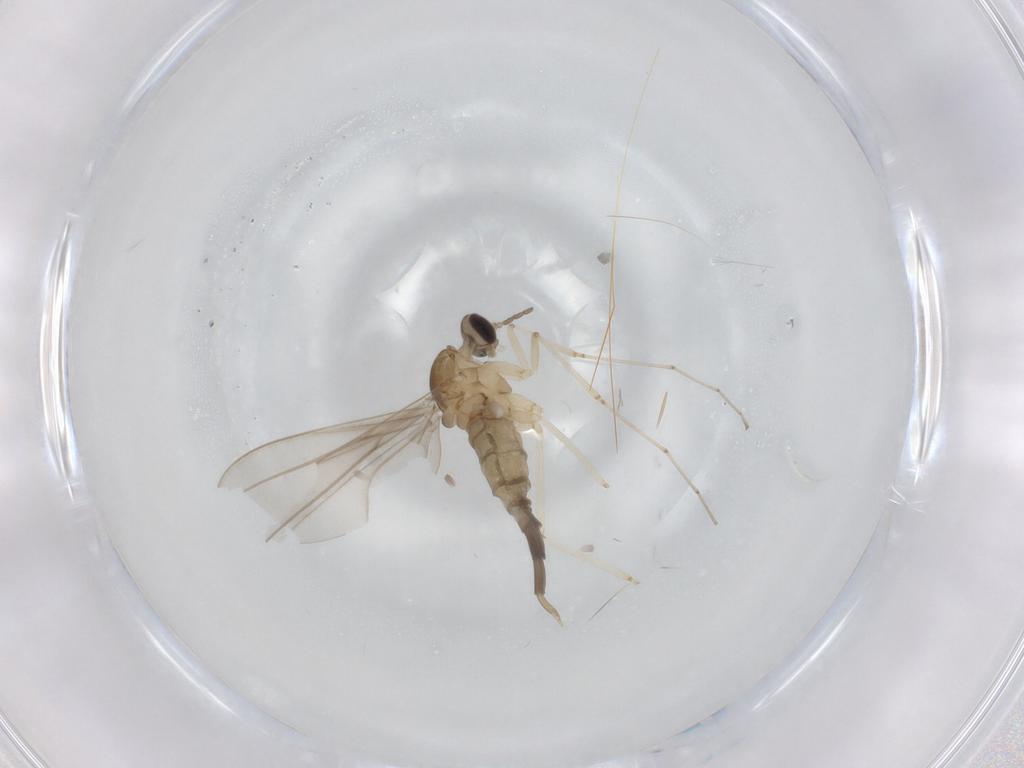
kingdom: Animalia
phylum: Arthropoda
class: Insecta
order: Diptera
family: Cecidomyiidae
